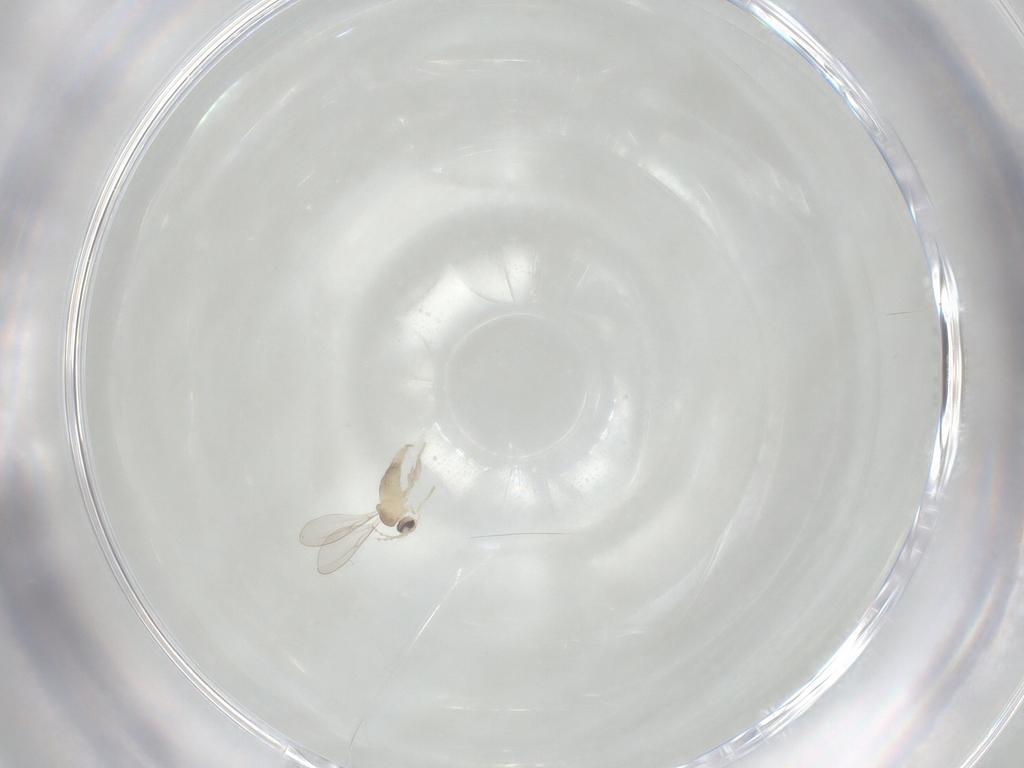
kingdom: Animalia
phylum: Arthropoda
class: Insecta
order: Diptera
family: Cecidomyiidae
